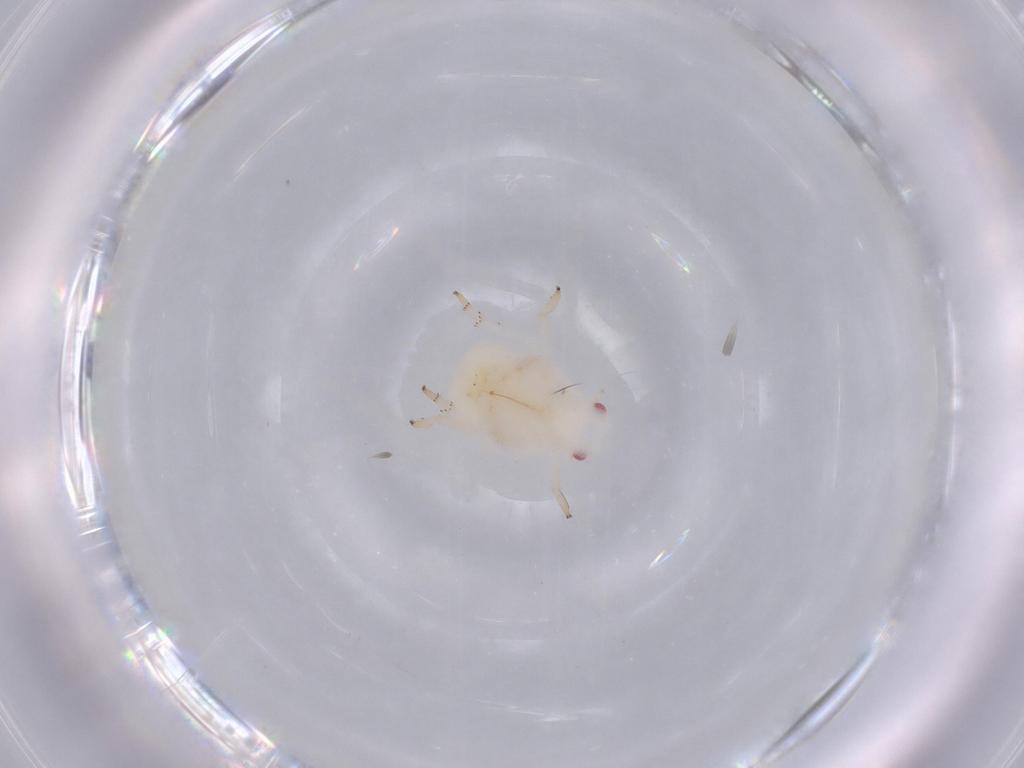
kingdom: Animalia
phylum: Arthropoda
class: Insecta
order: Hemiptera
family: Flatidae
